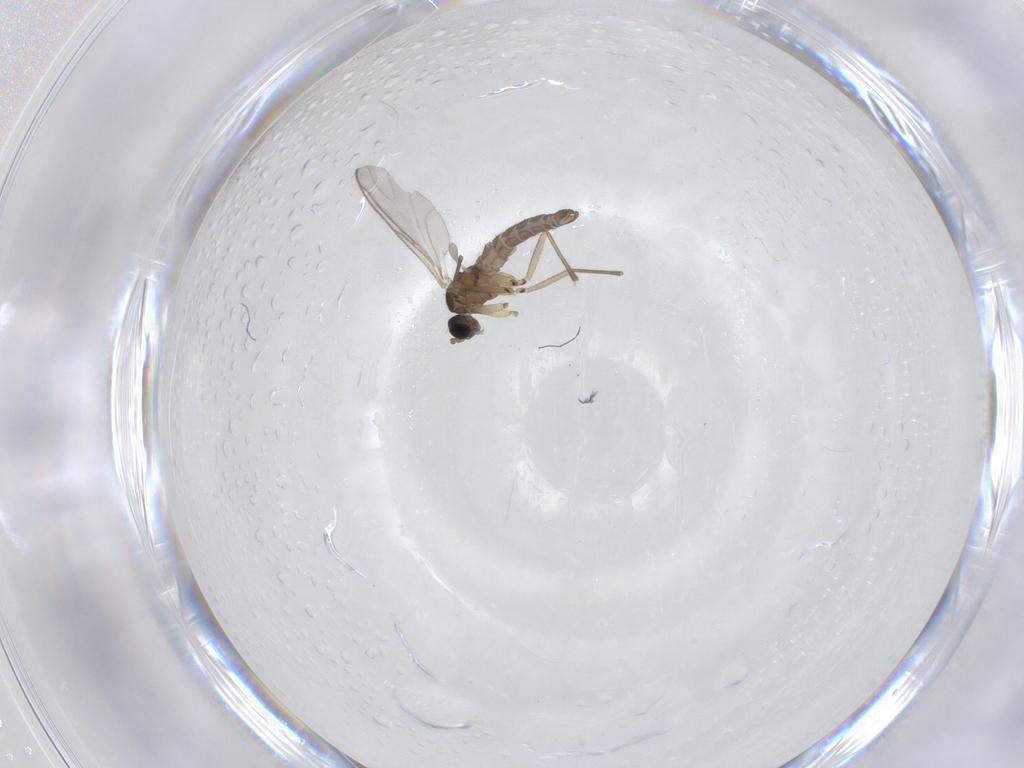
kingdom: Animalia
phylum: Arthropoda
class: Insecta
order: Diptera
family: Sciaridae
